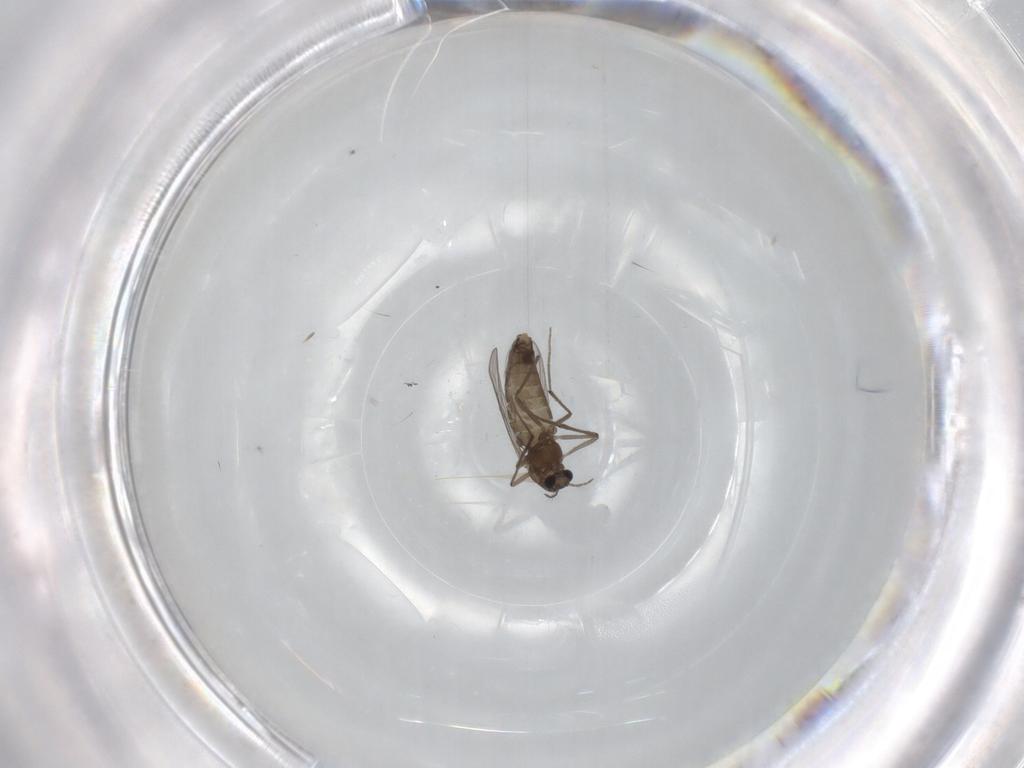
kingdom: Animalia
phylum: Arthropoda
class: Insecta
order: Diptera
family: Chironomidae
